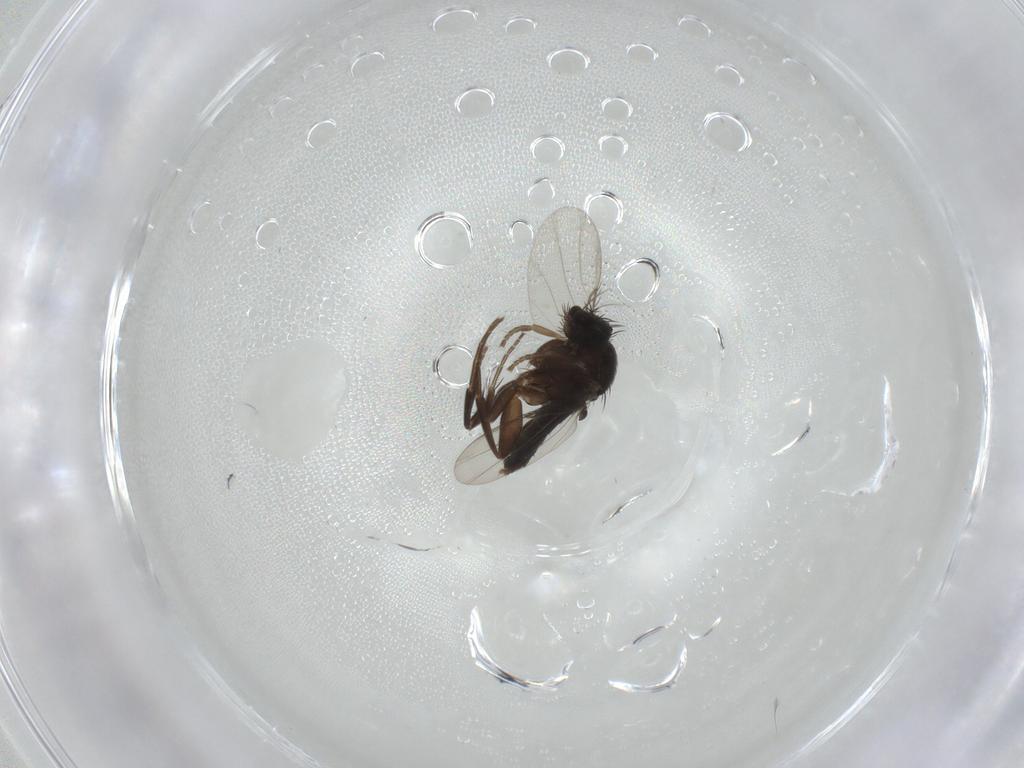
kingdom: Animalia
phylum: Arthropoda
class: Insecta
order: Diptera
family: Phoridae
